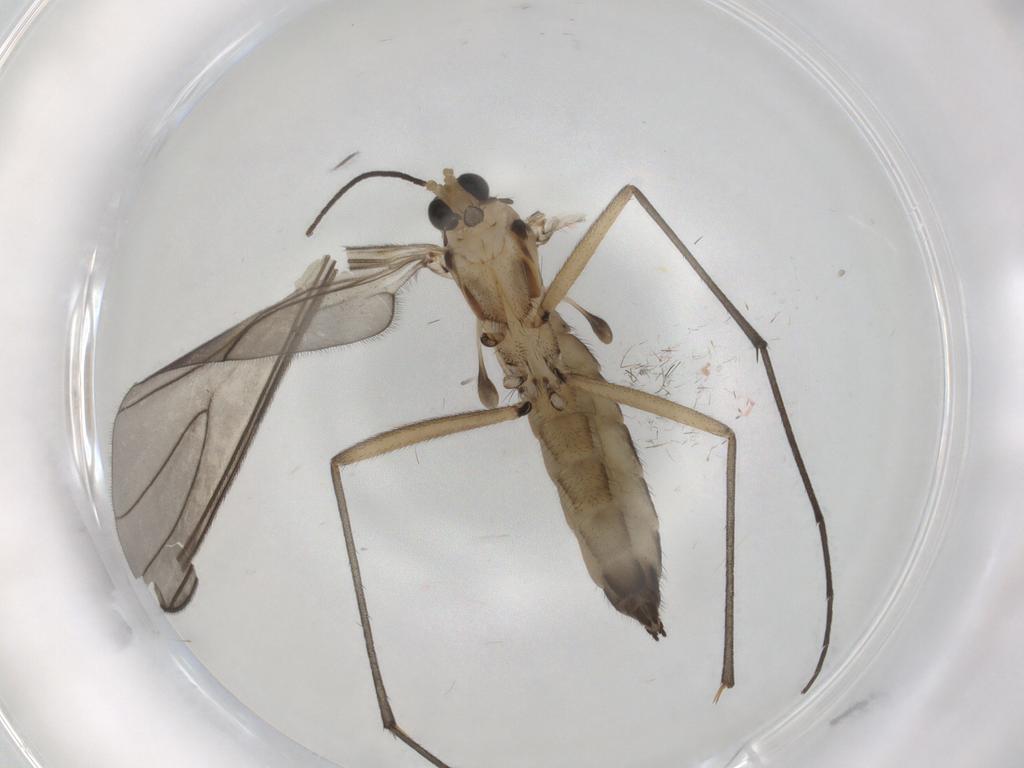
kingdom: Animalia
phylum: Arthropoda
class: Insecta
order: Diptera
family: Sciaridae
